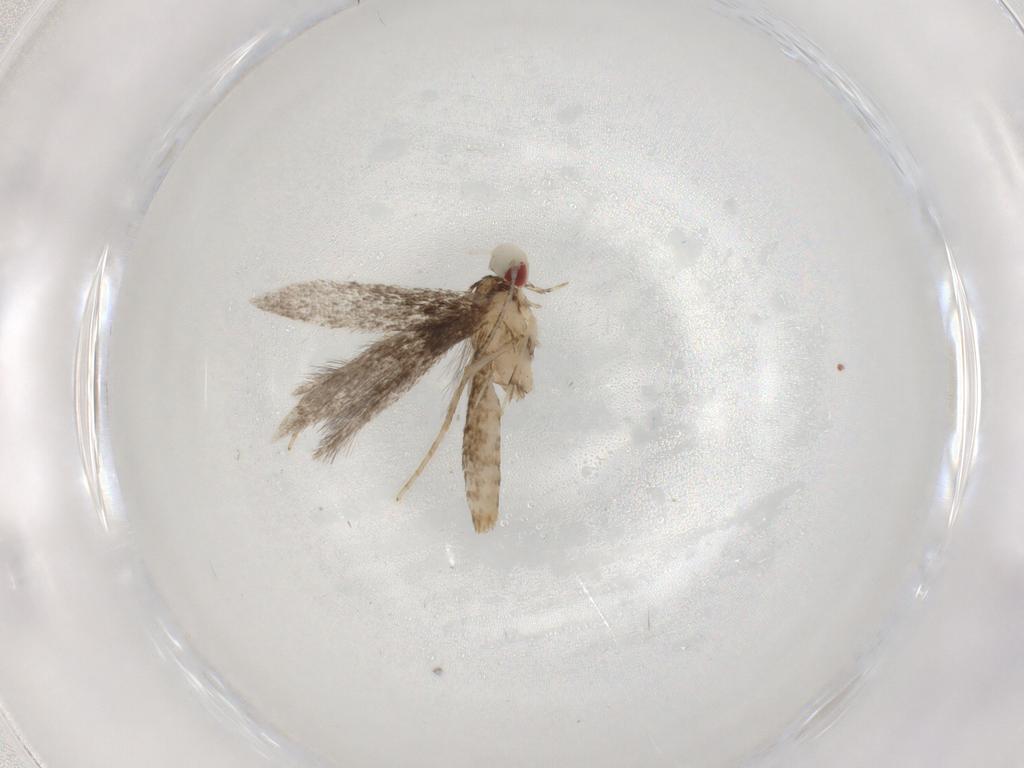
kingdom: Animalia
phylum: Arthropoda
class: Insecta
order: Lepidoptera
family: Gracillariidae
